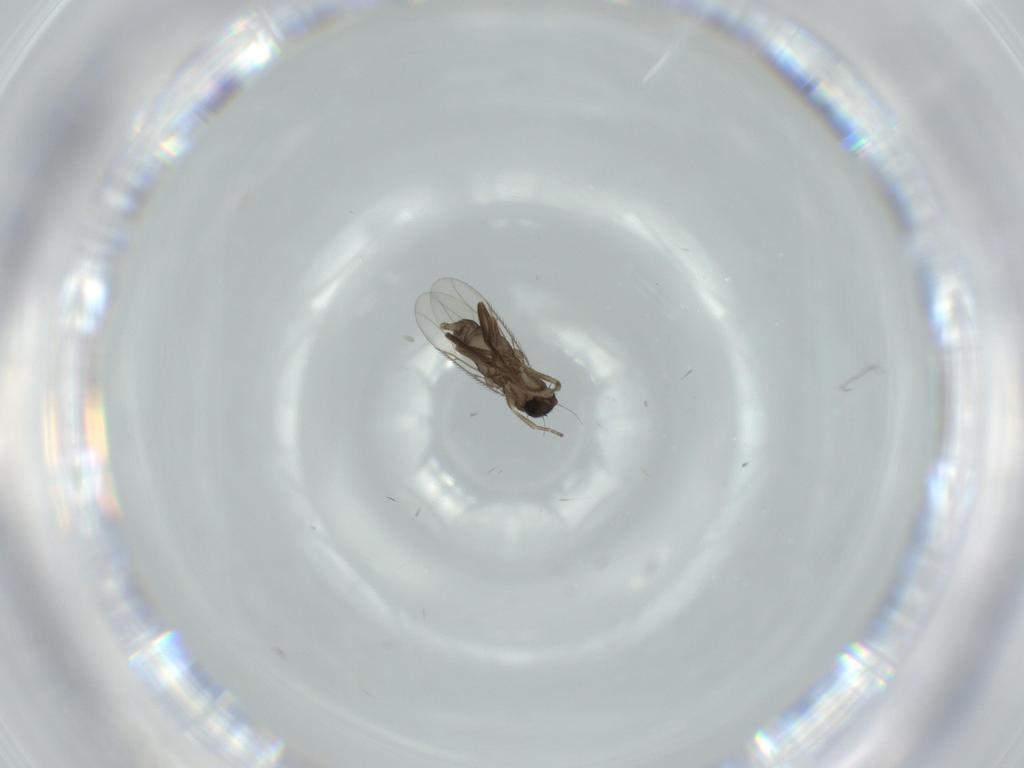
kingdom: Animalia
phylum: Arthropoda
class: Insecta
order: Diptera
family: Phoridae
